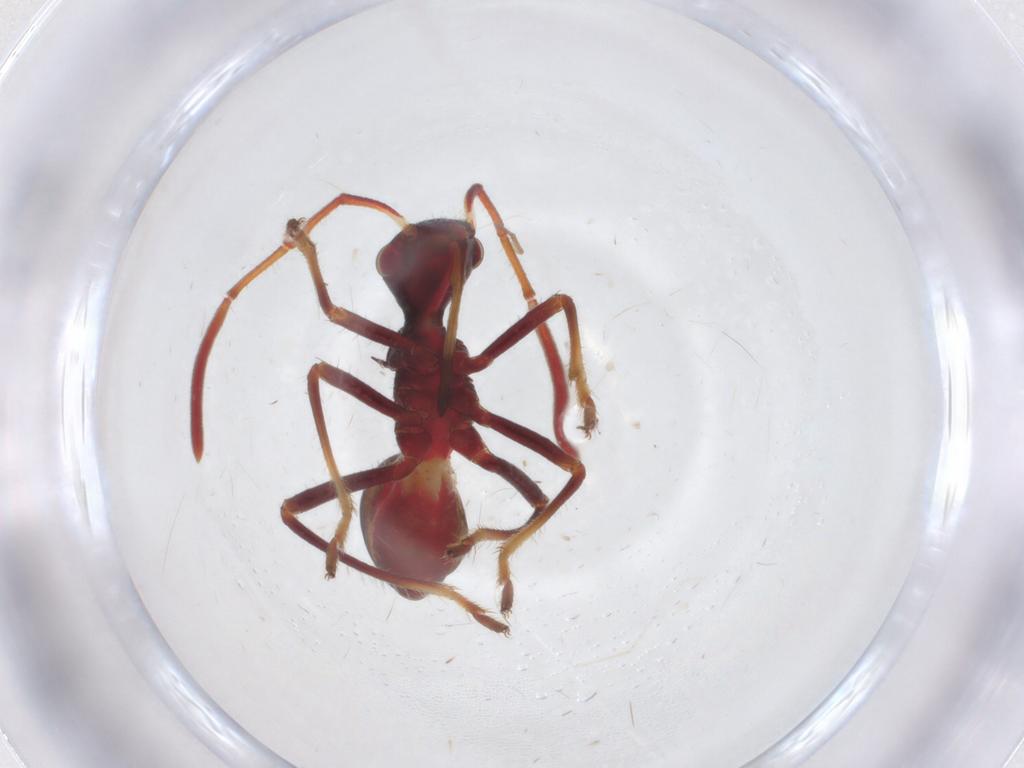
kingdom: Animalia
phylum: Arthropoda
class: Insecta
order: Hemiptera
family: Alydidae
